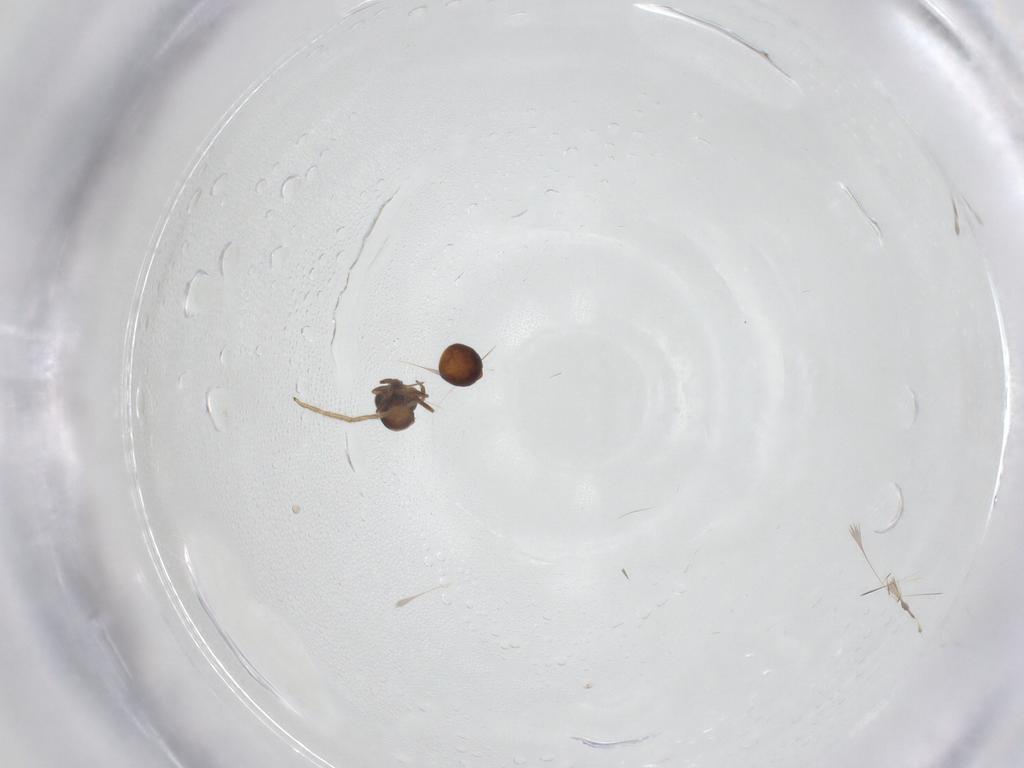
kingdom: Animalia
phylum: Arthropoda
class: Insecta
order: Hymenoptera
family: Scelionidae
